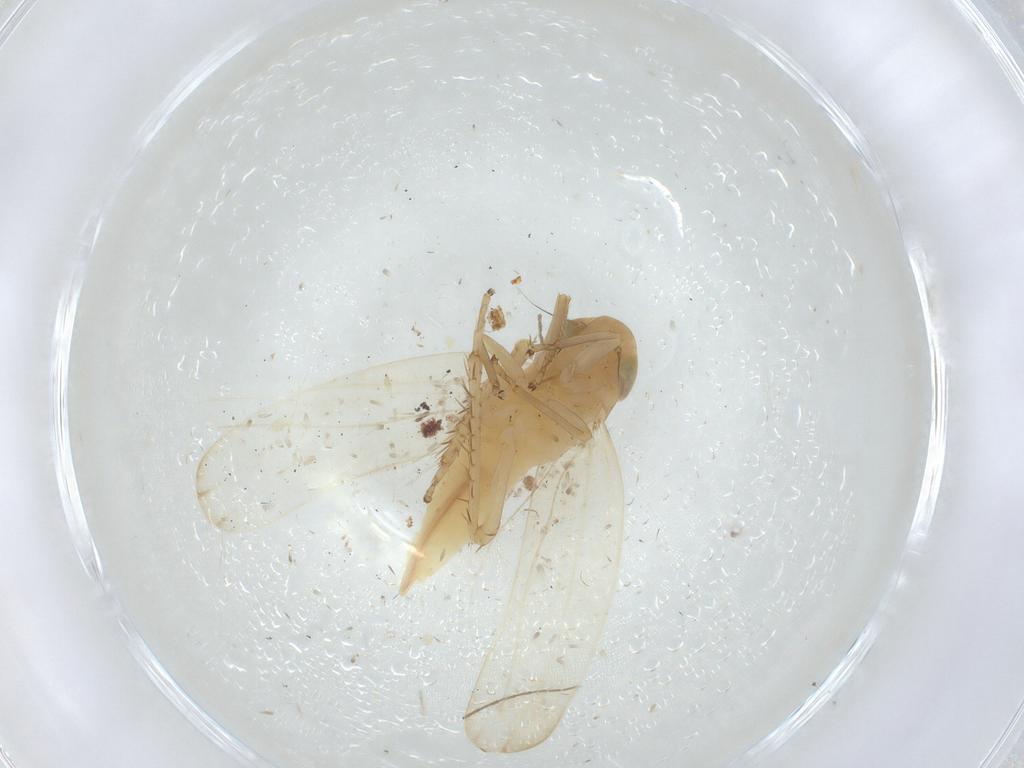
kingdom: Animalia
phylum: Arthropoda
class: Insecta
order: Hemiptera
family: Cicadellidae
